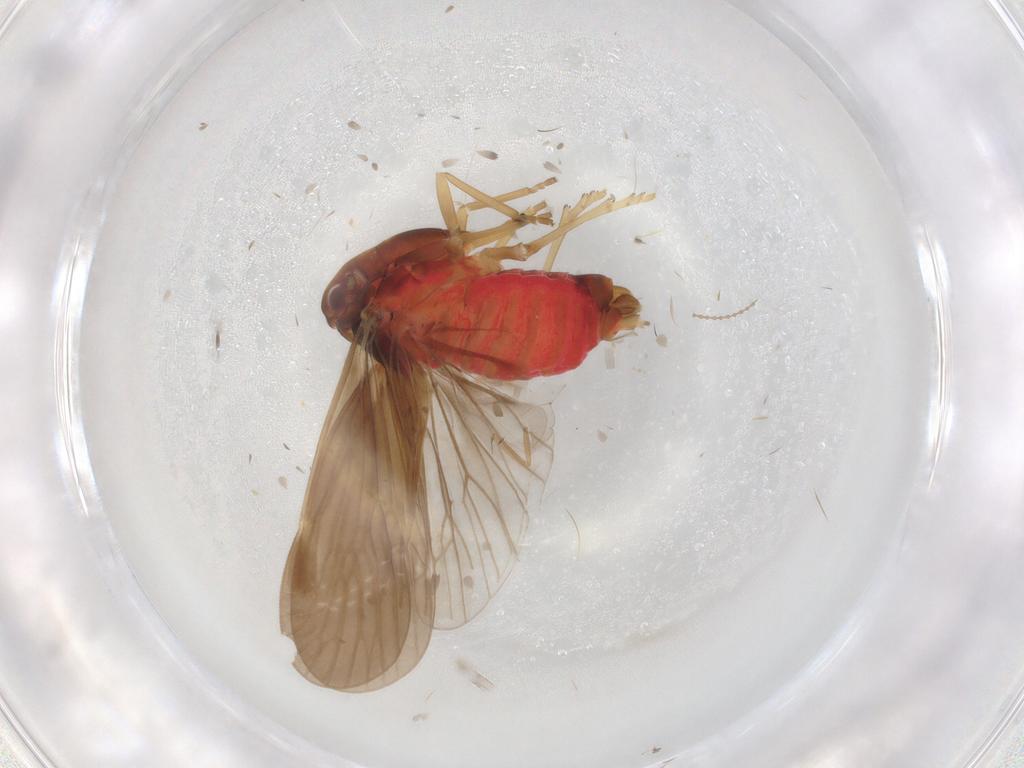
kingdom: Animalia
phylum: Arthropoda
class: Insecta
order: Hemiptera
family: Derbidae
